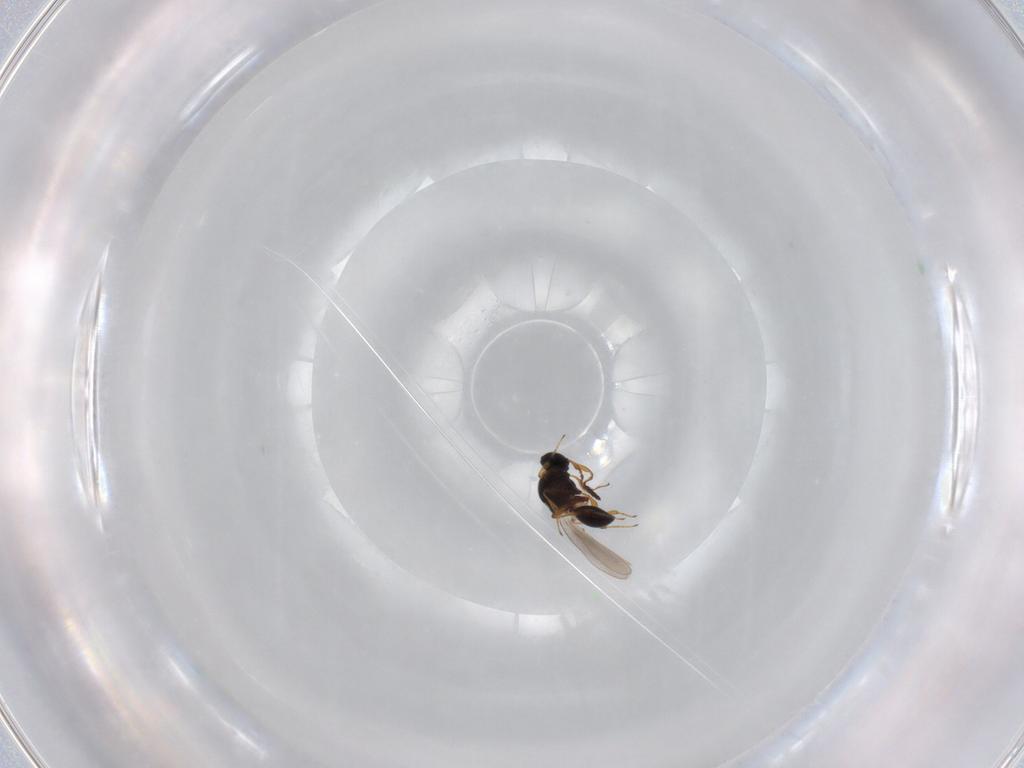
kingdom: Animalia
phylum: Arthropoda
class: Insecta
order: Hymenoptera
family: Platygastridae
